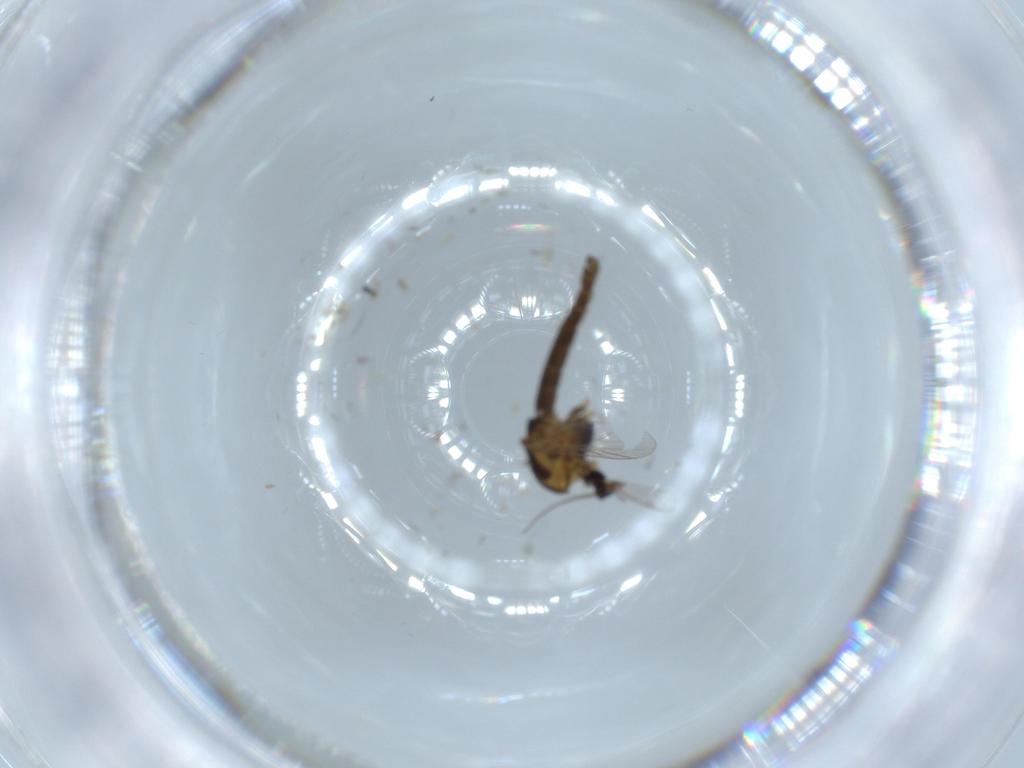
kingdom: Animalia
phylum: Arthropoda
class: Insecta
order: Diptera
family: Chironomidae
